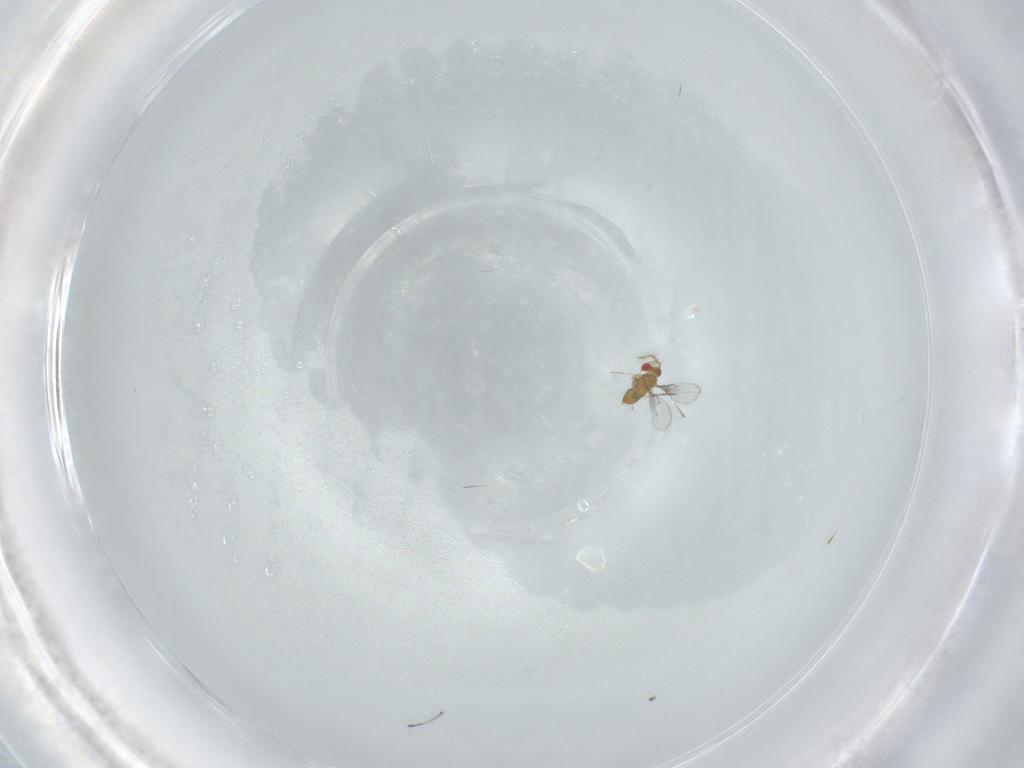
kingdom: Animalia
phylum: Arthropoda
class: Insecta
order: Hymenoptera
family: Trichogrammatidae
